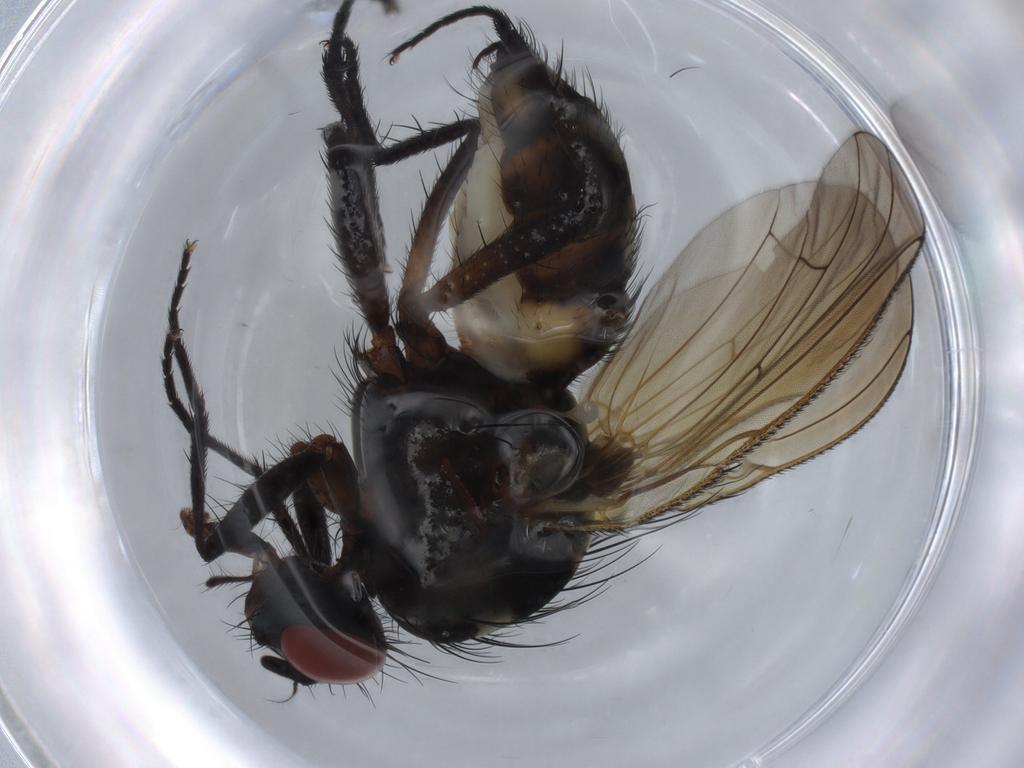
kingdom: Animalia
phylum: Arthropoda
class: Insecta
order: Diptera
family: Anthomyiidae
